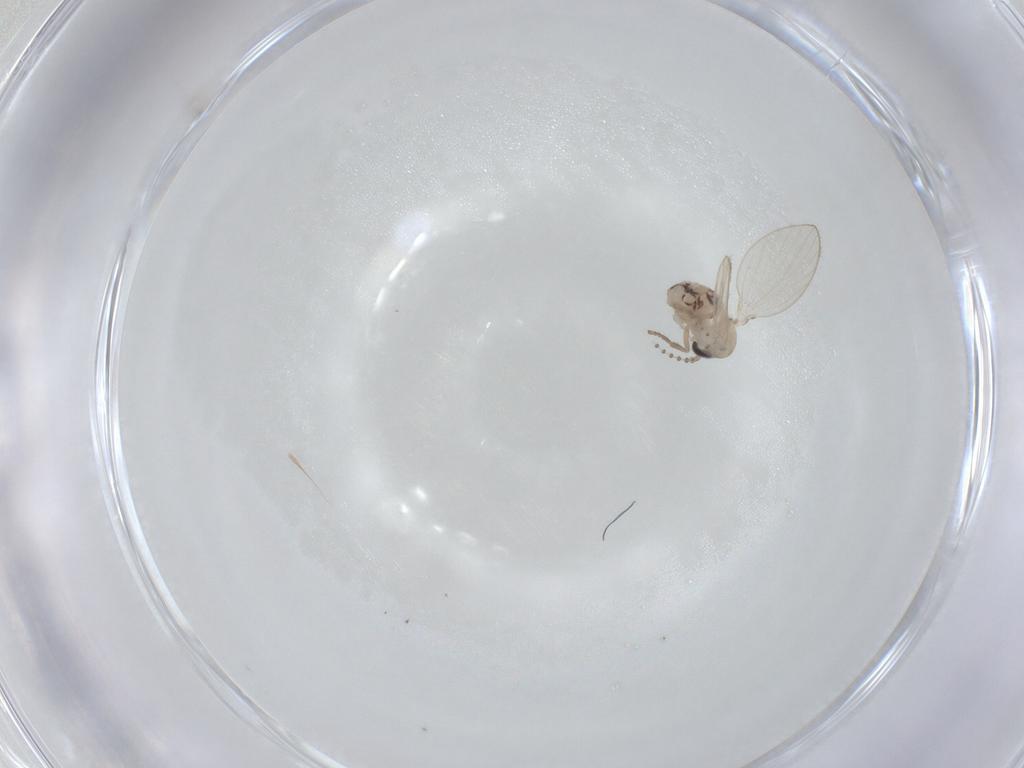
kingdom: Animalia
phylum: Arthropoda
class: Insecta
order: Diptera
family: Psychodidae
